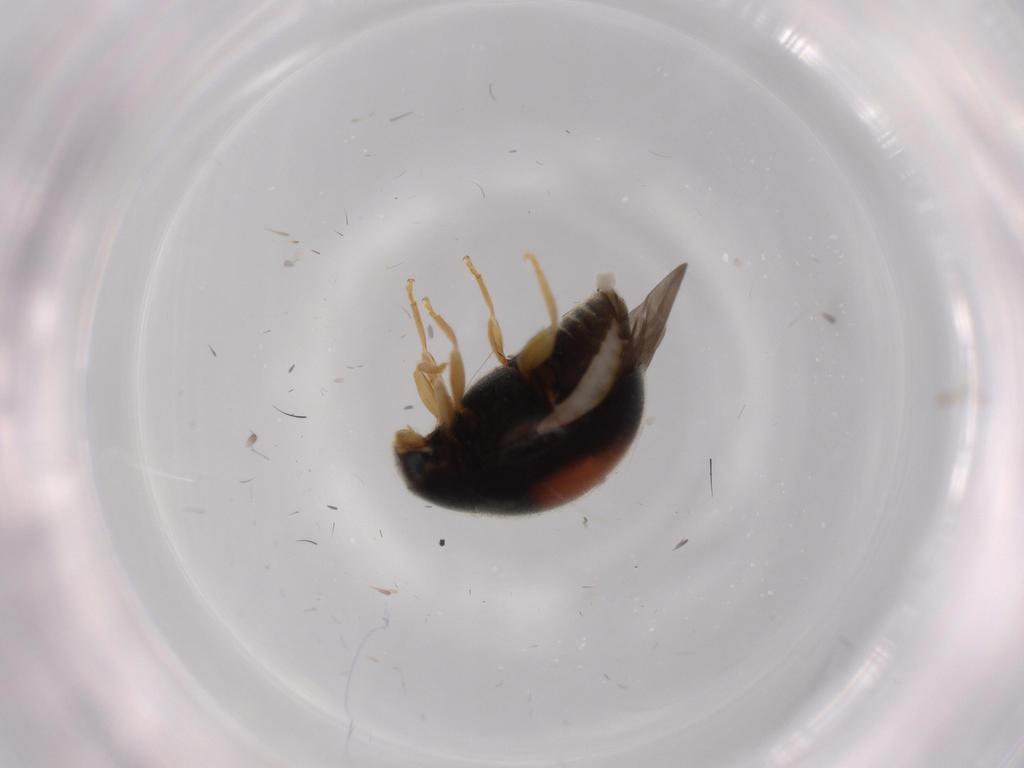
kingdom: Animalia
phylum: Arthropoda
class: Insecta
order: Coleoptera
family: Coccinellidae
